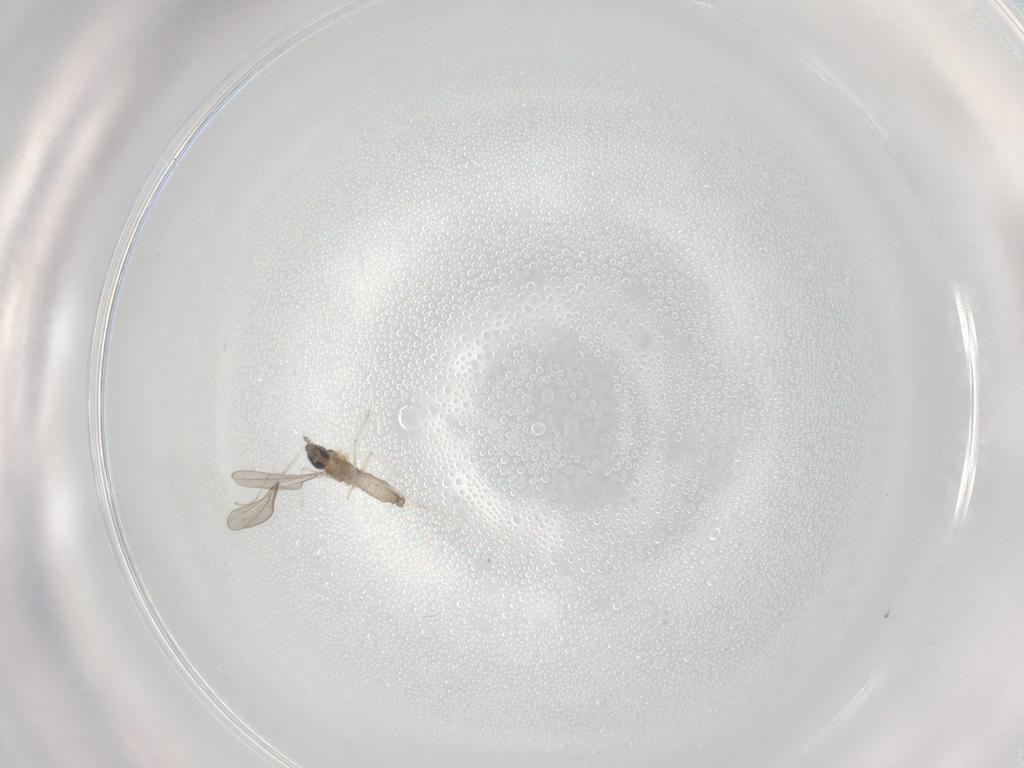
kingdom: Animalia
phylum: Arthropoda
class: Insecta
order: Diptera
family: Cecidomyiidae
